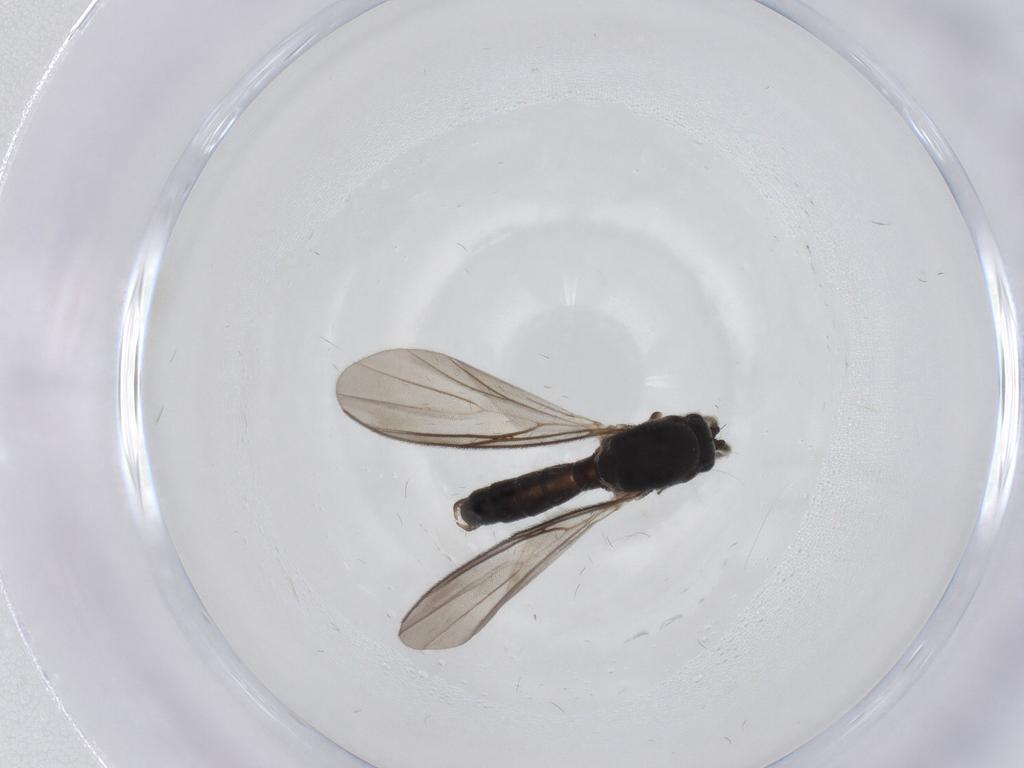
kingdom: Animalia
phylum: Arthropoda
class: Insecta
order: Diptera
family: Mycetophilidae
